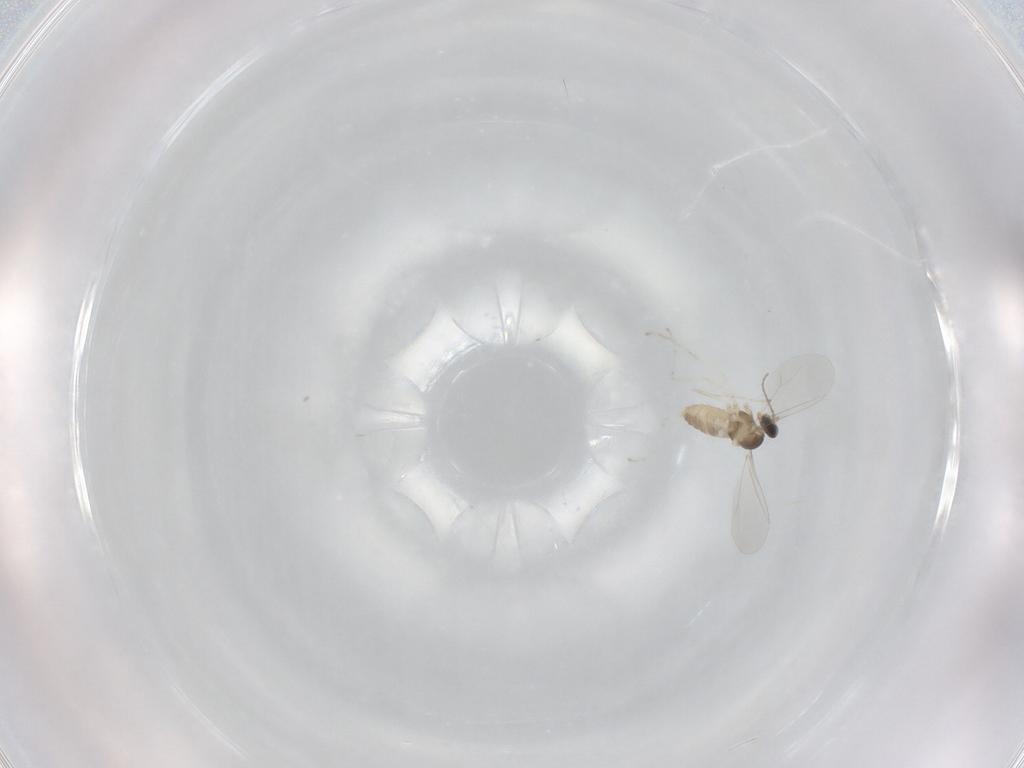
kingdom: Animalia
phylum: Arthropoda
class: Insecta
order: Diptera
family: Cecidomyiidae
